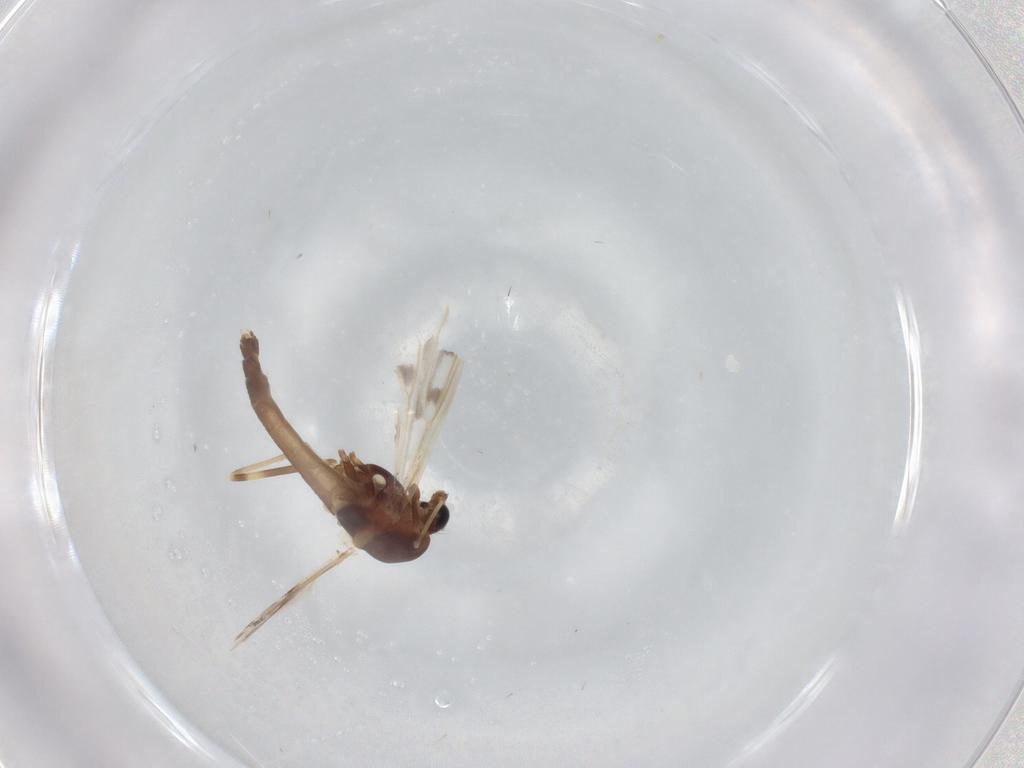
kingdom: Animalia
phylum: Arthropoda
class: Insecta
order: Diptera
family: Chironomidae
